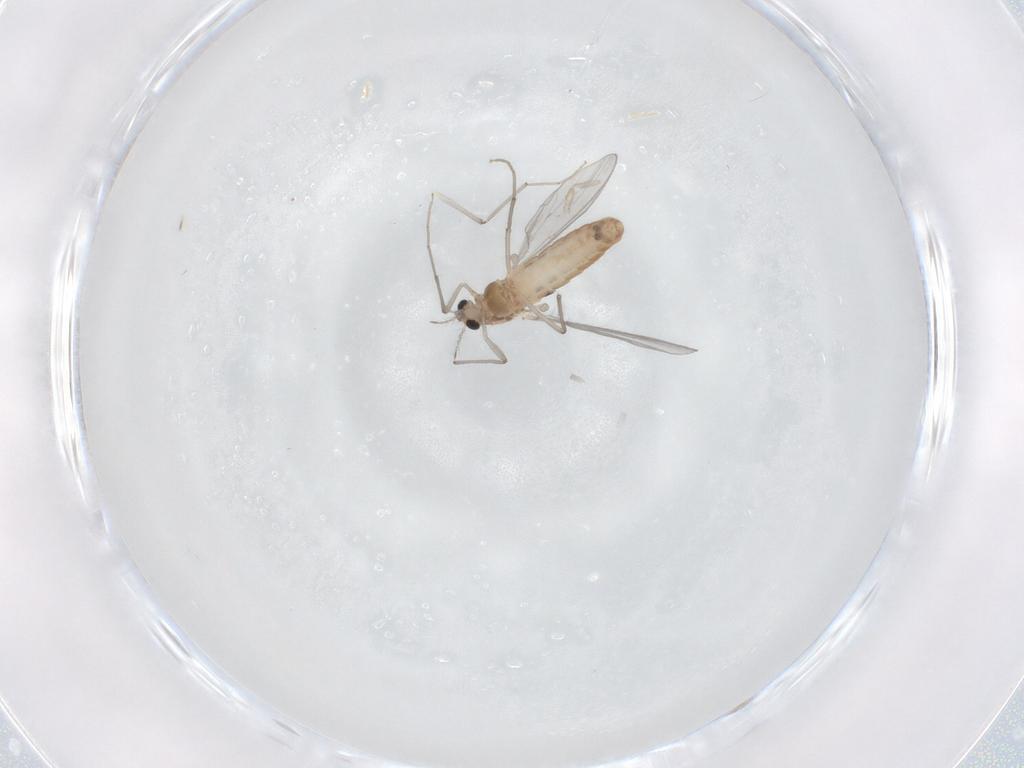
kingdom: Animalia
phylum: Arthropoda
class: Insecta
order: Diptera
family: Chironomidae
